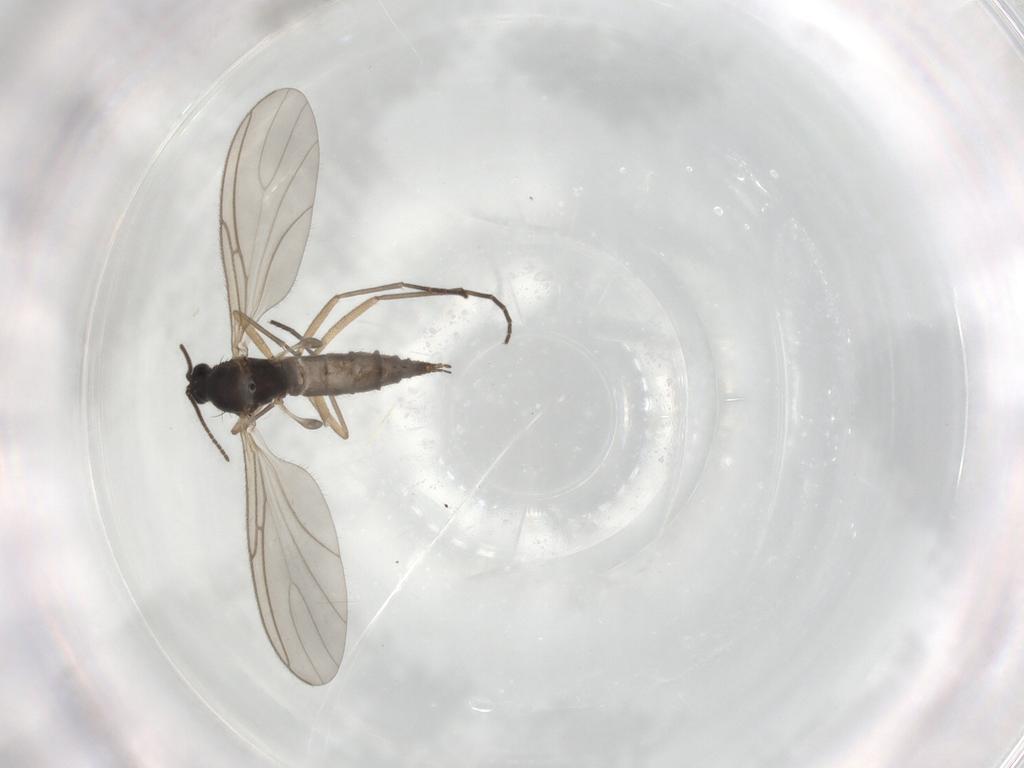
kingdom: Animalia
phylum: Arthropoda
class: Insecta
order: Diptera
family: Sciaridae
